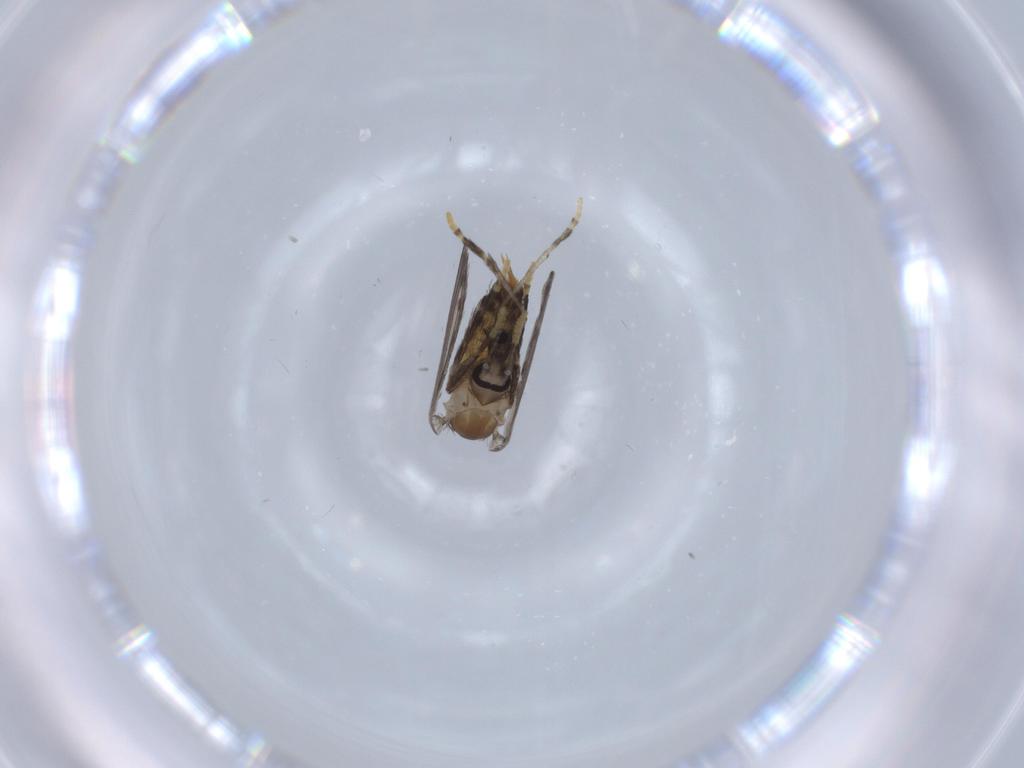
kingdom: Animalia
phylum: Arthropoda
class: Insecta
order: Diptera
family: Psychodidae
